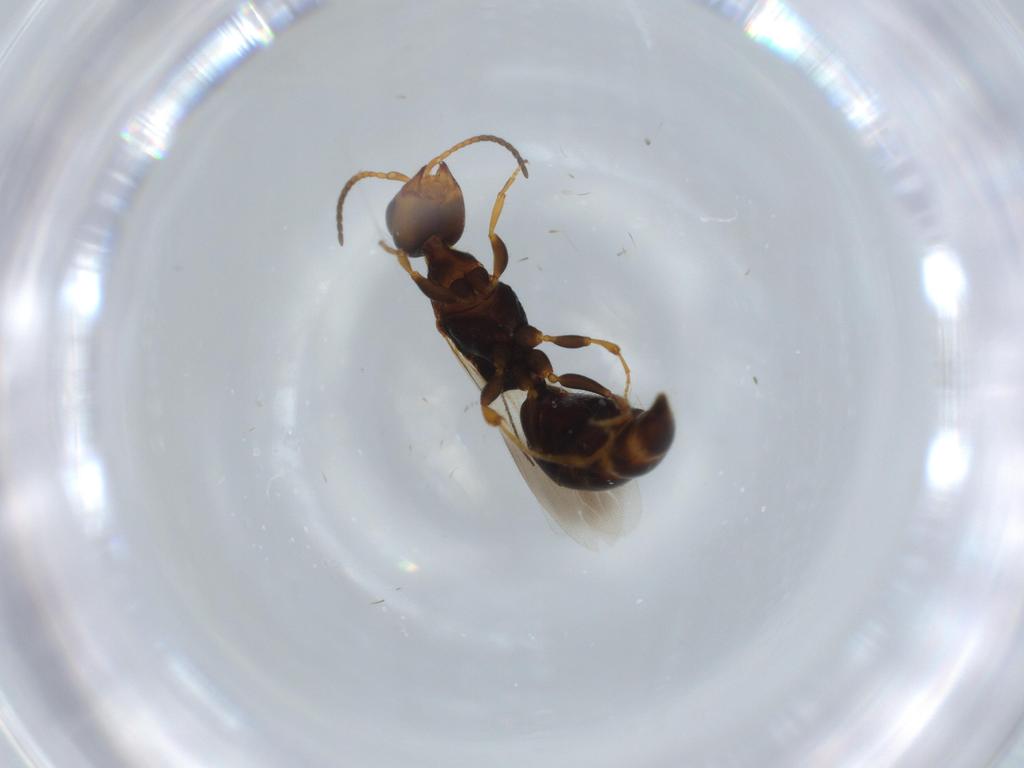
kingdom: Animalia
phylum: Arthropoda
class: Insecta
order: Hymenoptera
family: Bethylidae
